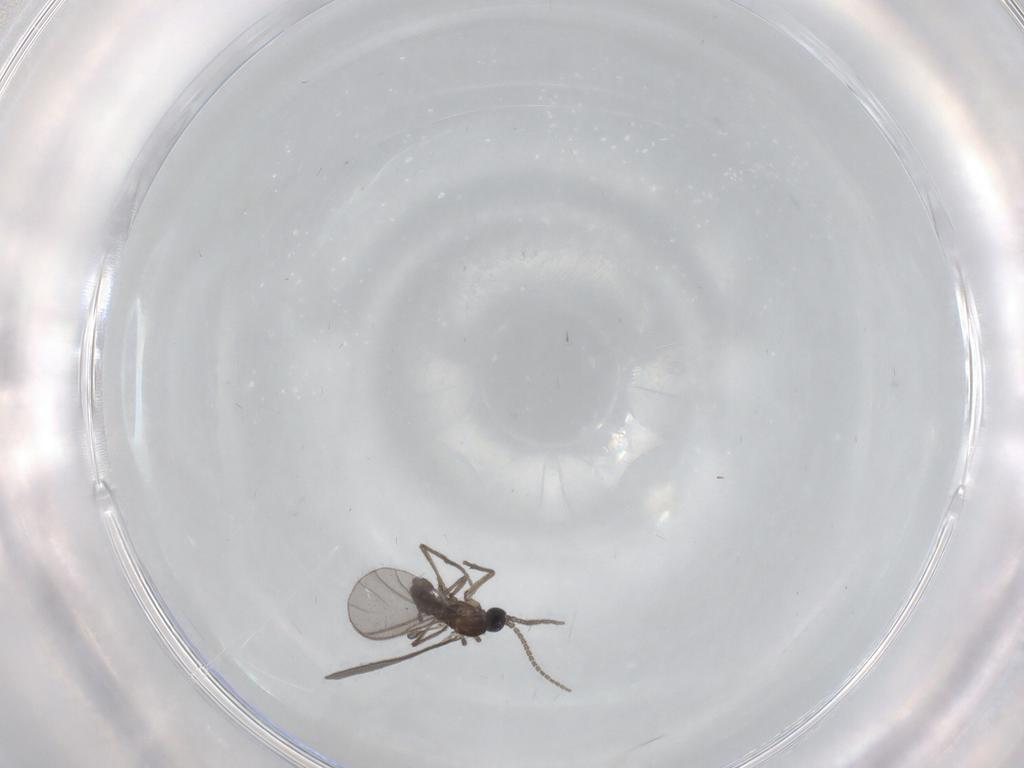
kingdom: Animalia
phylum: Arthropoda
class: Insecta
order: Diptera
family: Sciaridae
